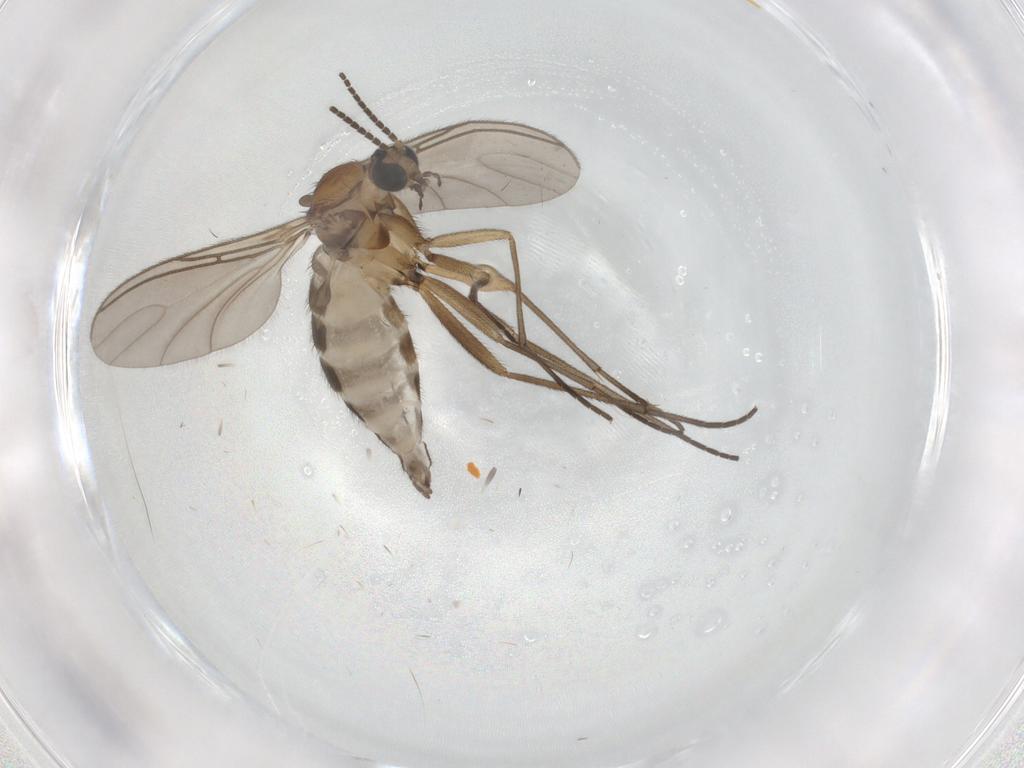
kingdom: Animalia
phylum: Arthropoda
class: Insecta
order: Diptera
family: Sciaridae
